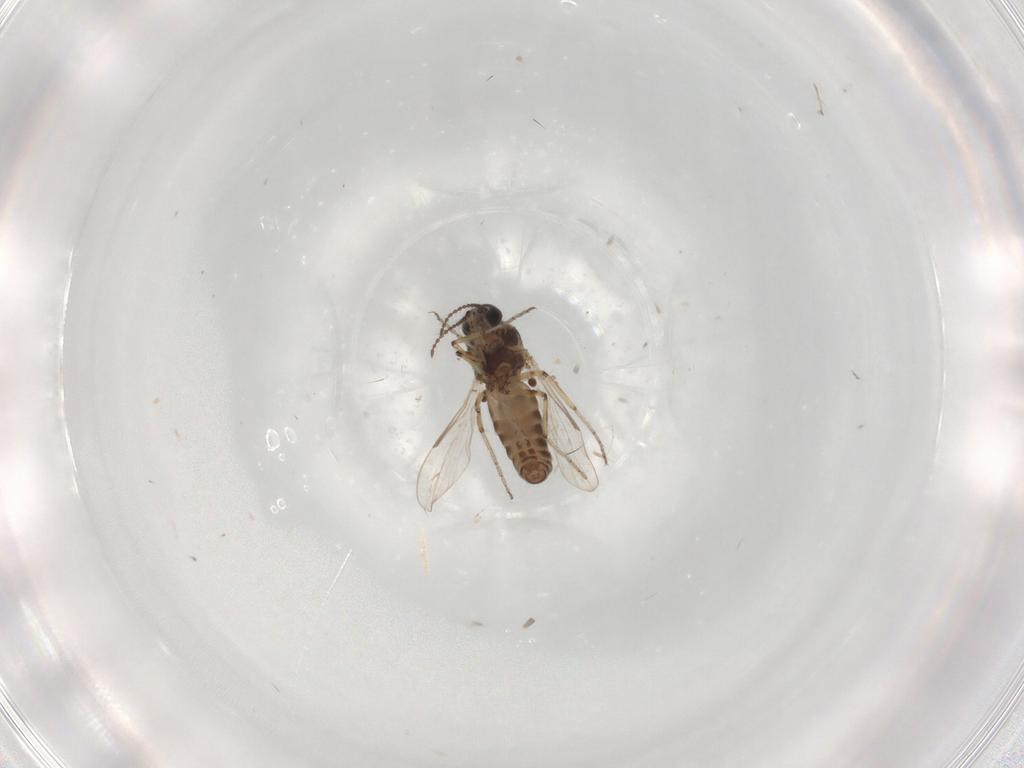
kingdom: Animalia
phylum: Arthropoda
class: Insecta
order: Diptera
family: Ceratopogonidae
